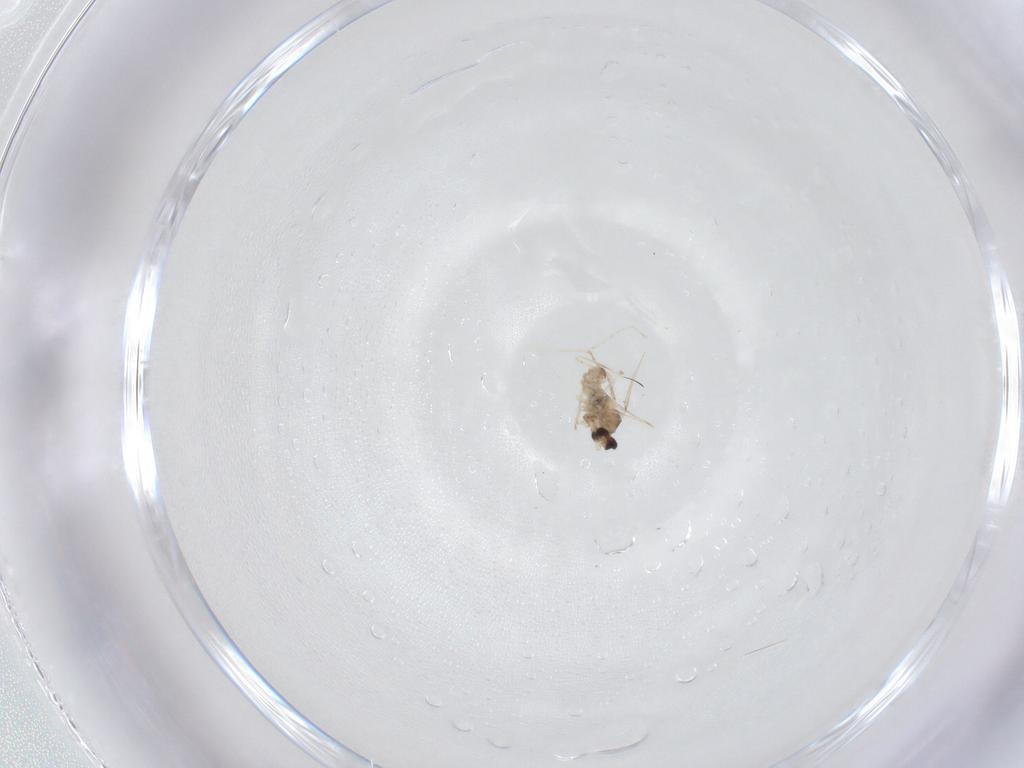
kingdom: Animalia
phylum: Arthropoda
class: Insecta
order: Diptera
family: Cecidomyiidae
